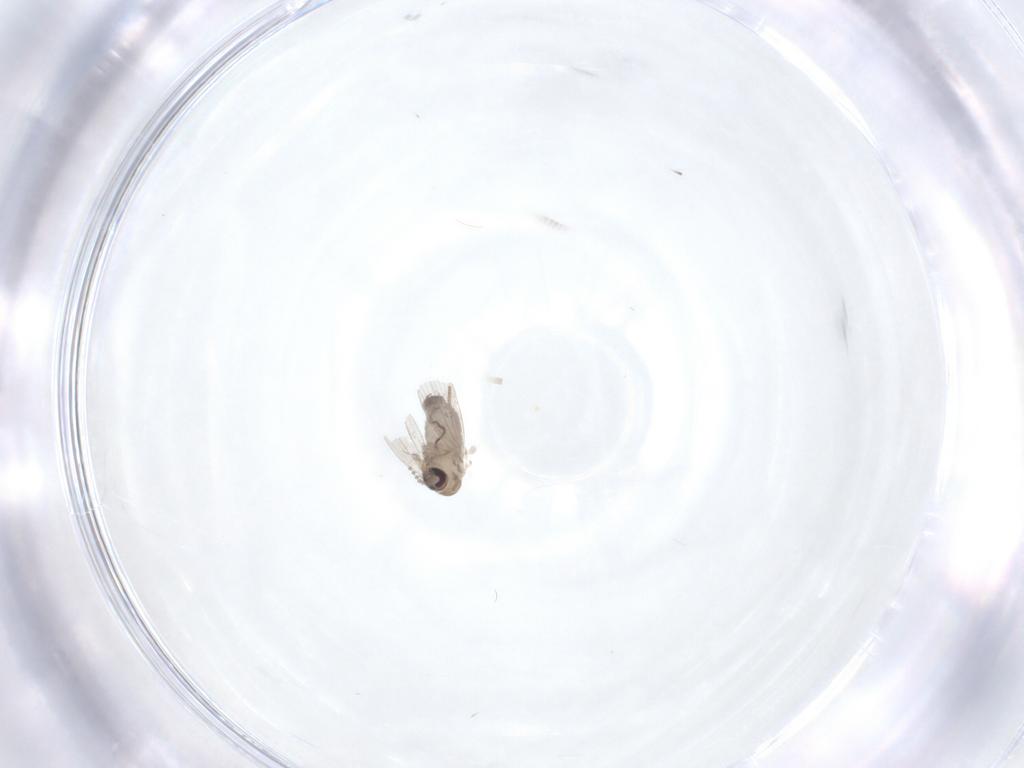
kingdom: Animalia
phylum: Arthropoda
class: Insecta
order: Diptera
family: Psychodidae
